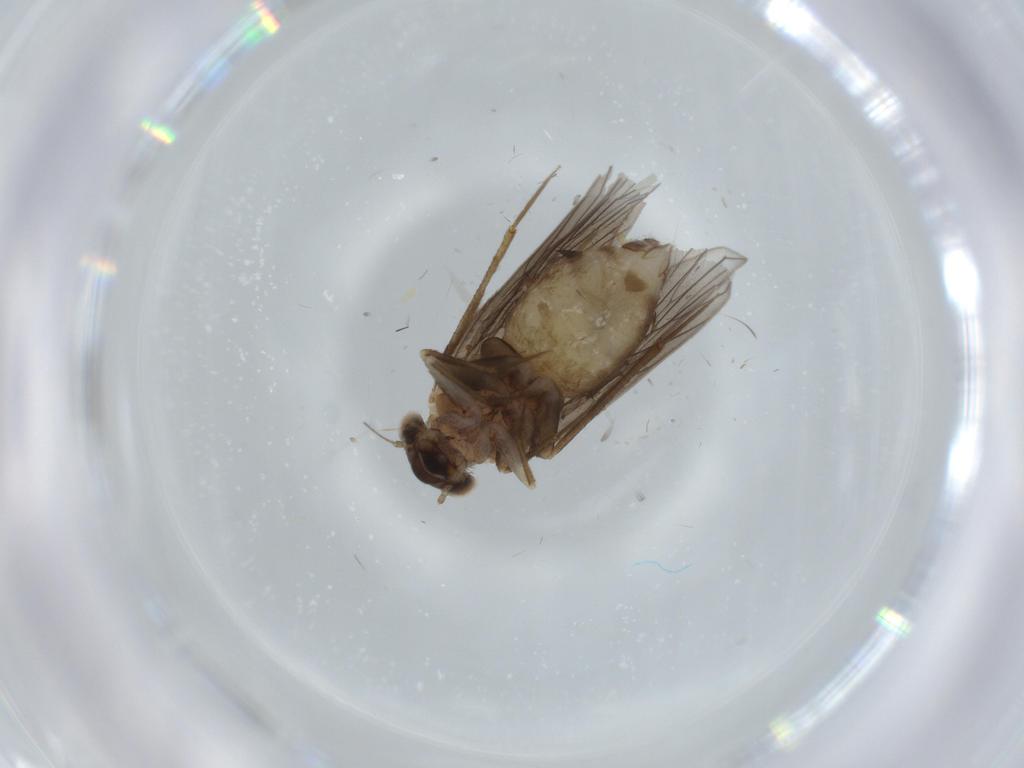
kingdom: Animalia
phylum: Arthropoda
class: Insecta
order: Psocodea
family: Lepidopsocidae
